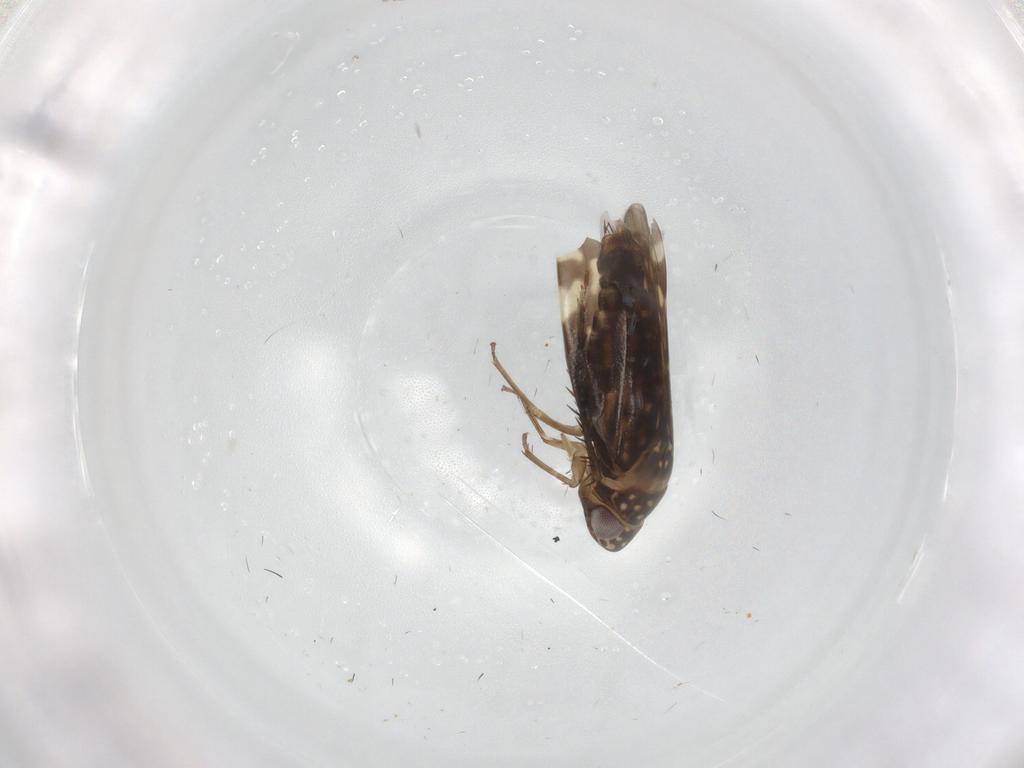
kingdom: Animalia
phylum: Arthropoda
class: Insecta
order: Hemiptera
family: Cicadellidae
